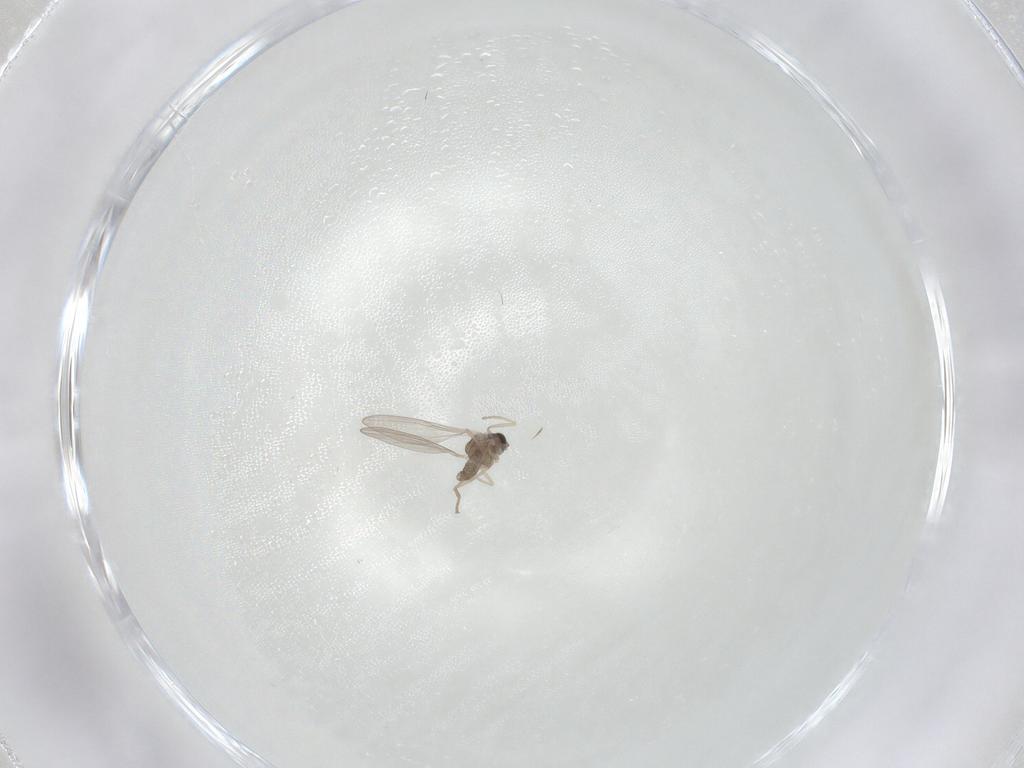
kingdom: Animalia
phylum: Arthropoda
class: Insecta
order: Diptera
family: Cecidomyiidae
